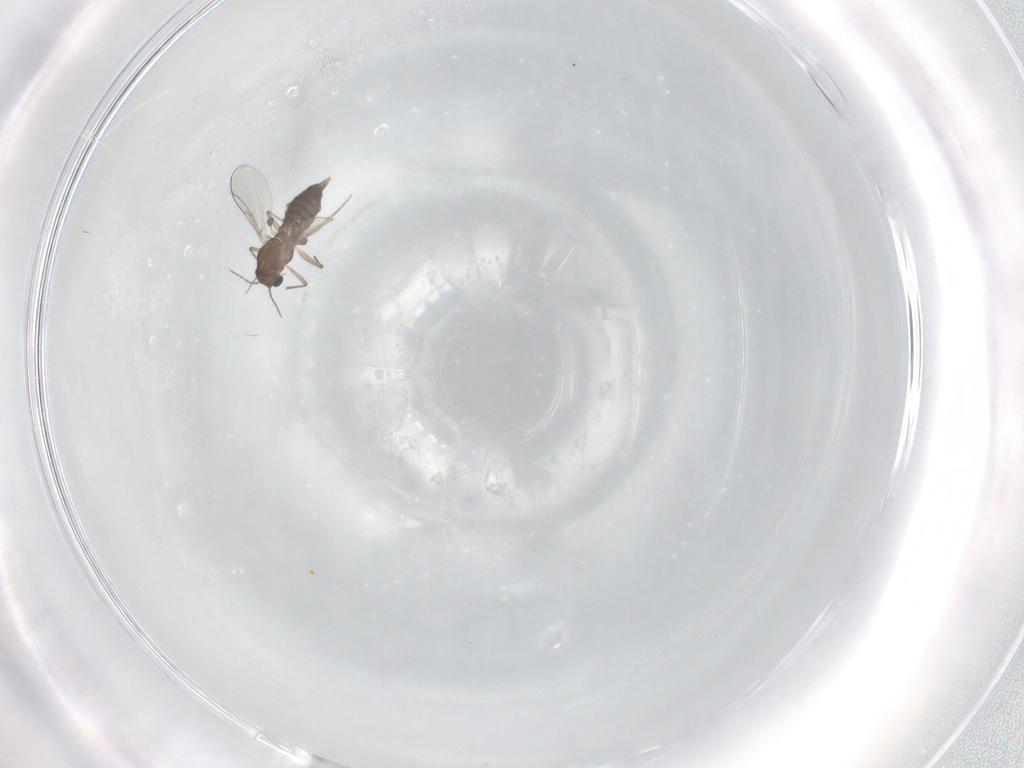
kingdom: Animalia
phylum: Arthropoda
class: Insecta
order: Diptera
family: Chironomidae
